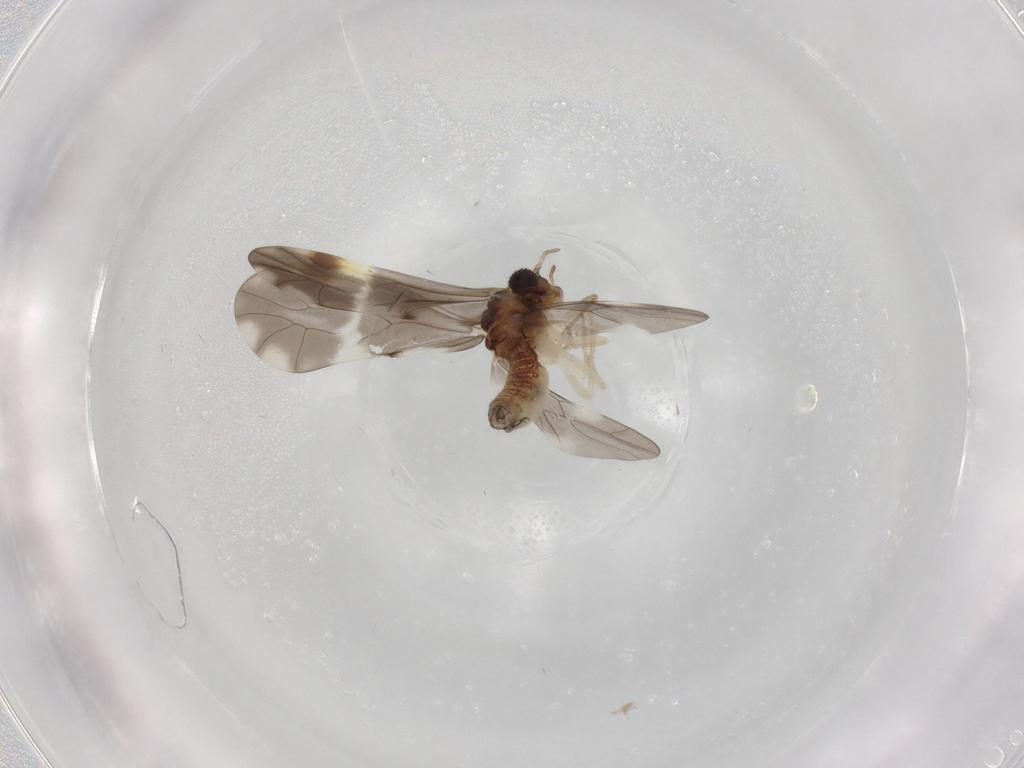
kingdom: Animalia
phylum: Arthropoda
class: Insecta
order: Psocodea
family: Peripsocidae
